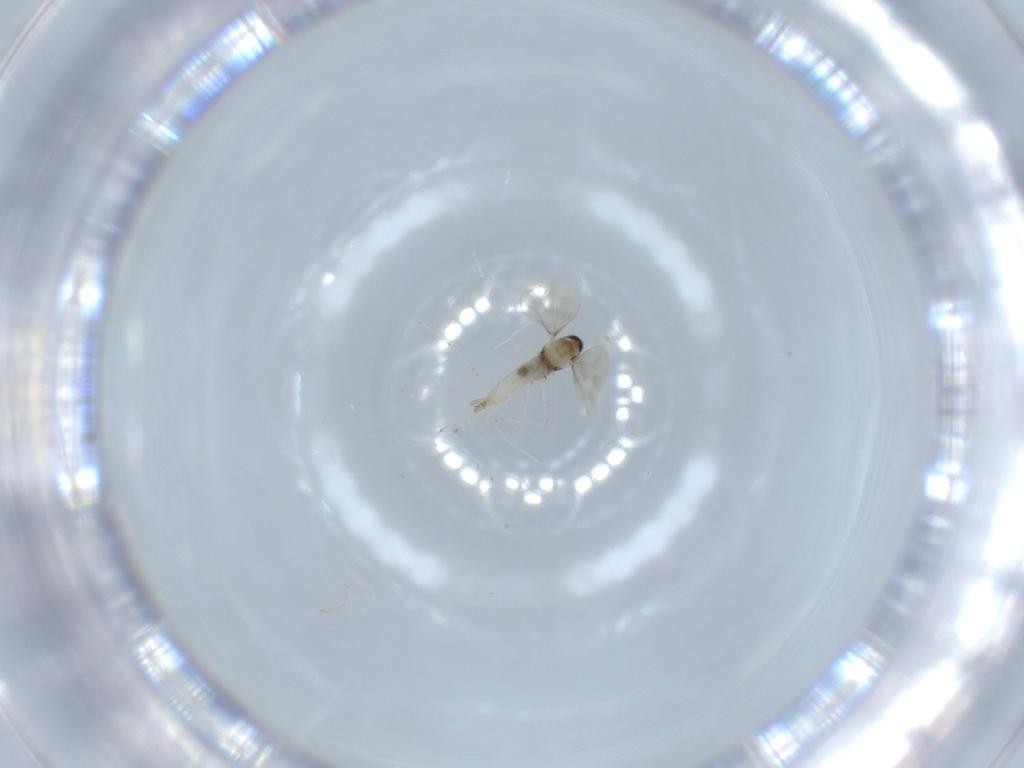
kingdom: Animalia
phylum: Arthropoda
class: Insecta
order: Diptera
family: Cecidomyiidae
